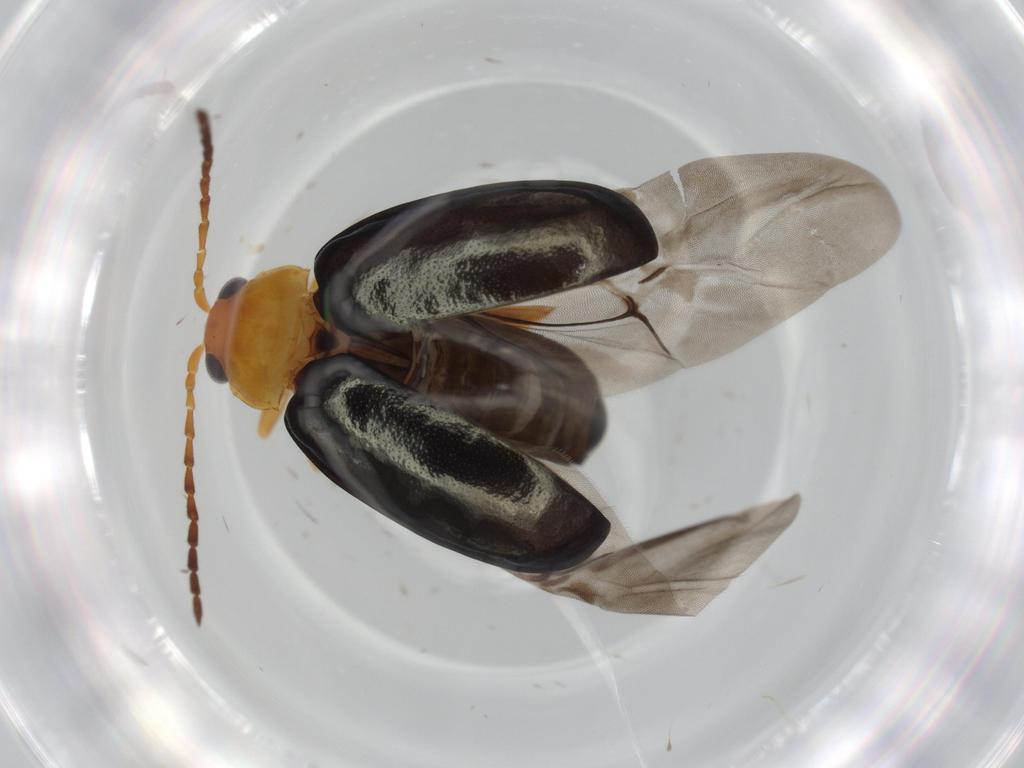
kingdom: Animalia
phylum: Arthropoda
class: Insecta
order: Coleoptera
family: Chrysomelidae
